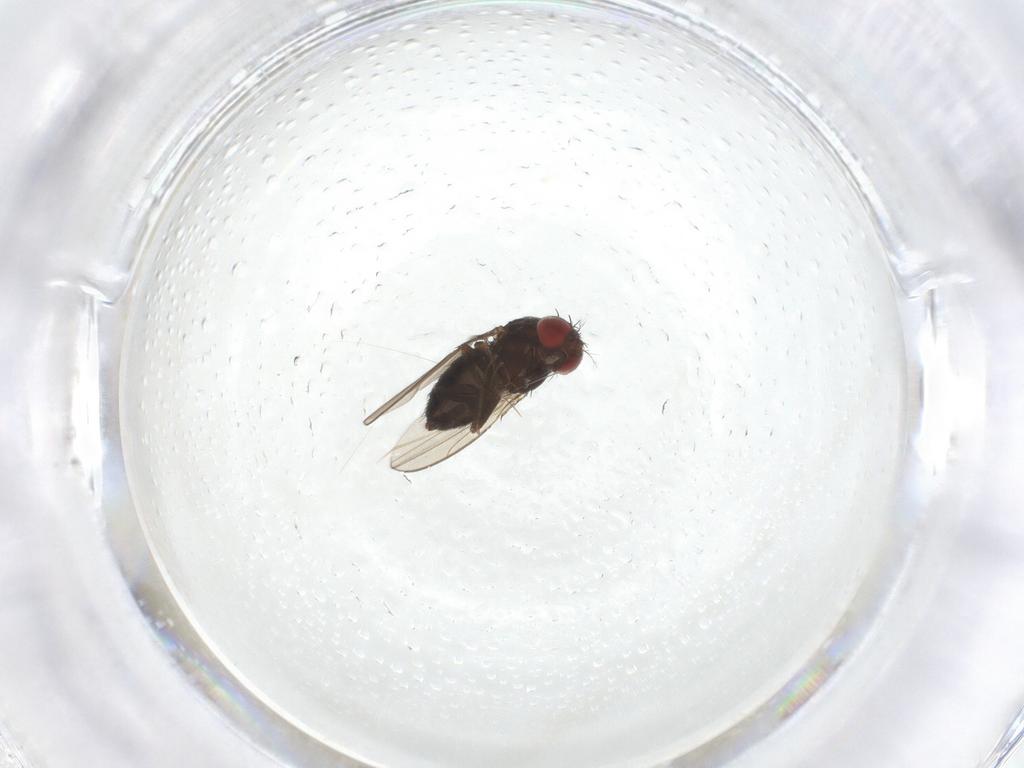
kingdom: Animalia
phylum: Arthropoda
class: Insecta
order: Diptera
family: Drosophilidae
